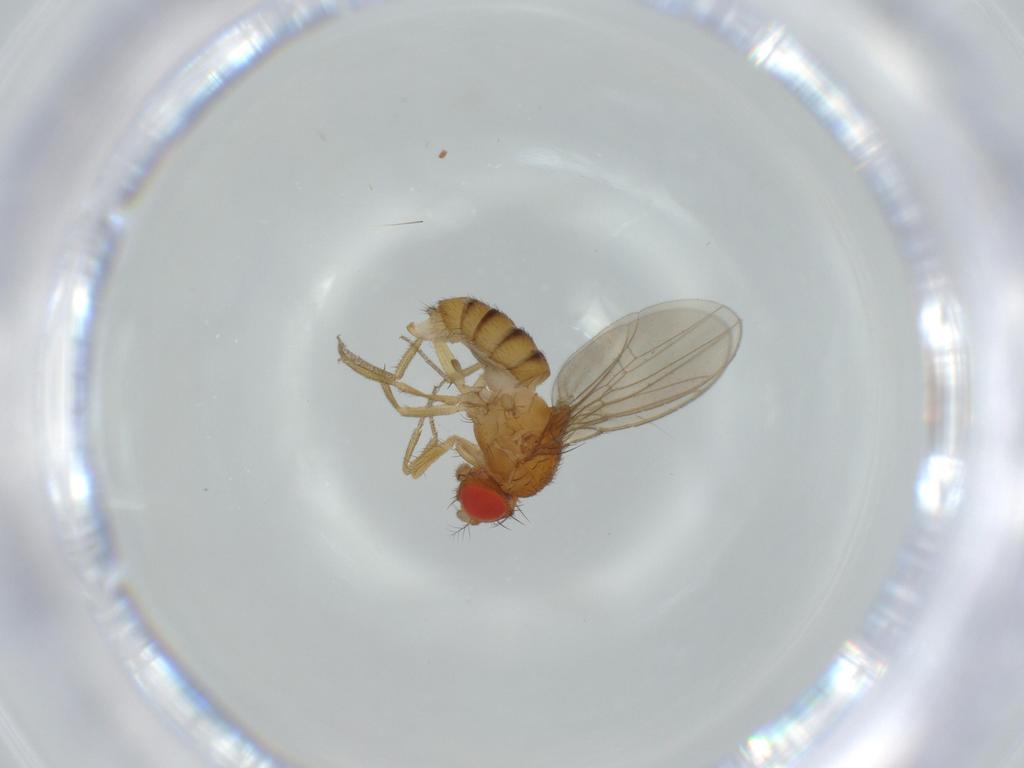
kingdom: Animalia
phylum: Arthropoda
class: Insecta
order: Diptera
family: Drosophilidae
